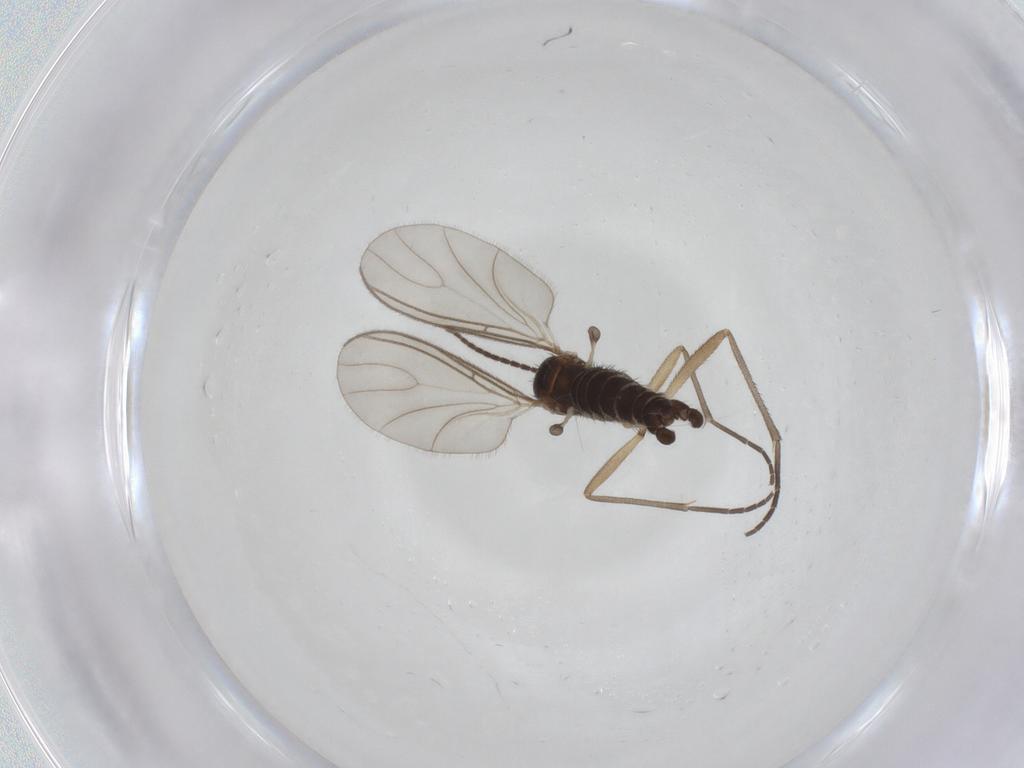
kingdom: Animalia
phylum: Arthropoda
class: Insecta
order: Diptera
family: Sciaridae
